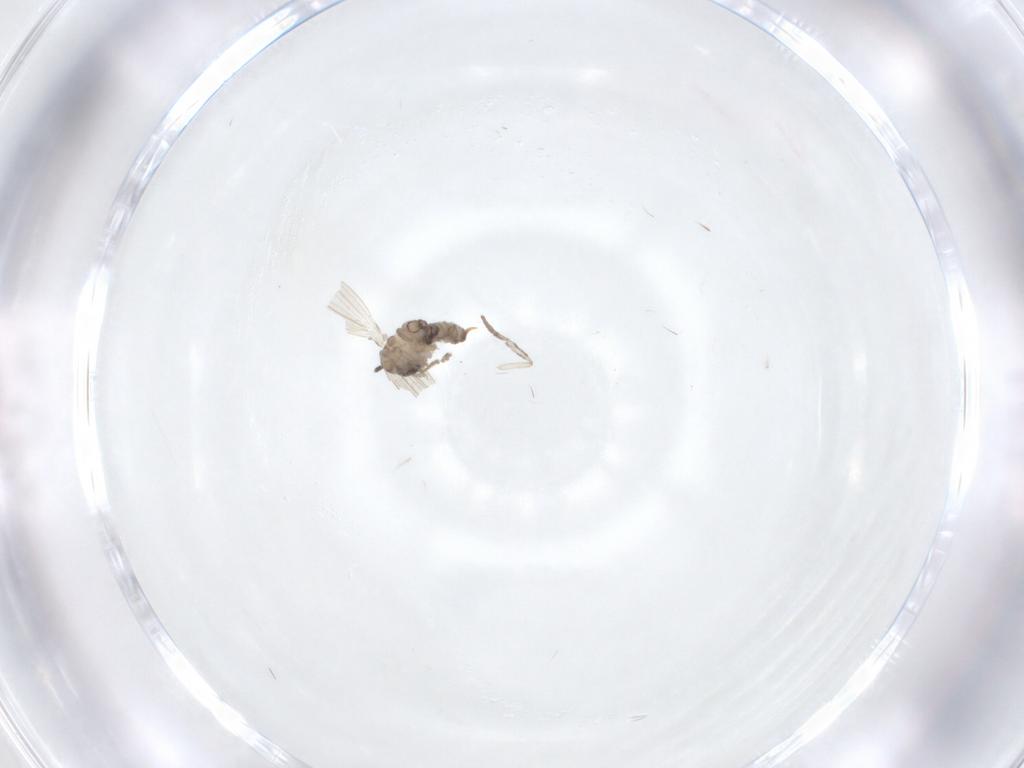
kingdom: Animalia
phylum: Arthropoda
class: Insecta
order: Diptera
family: Psychodidae
